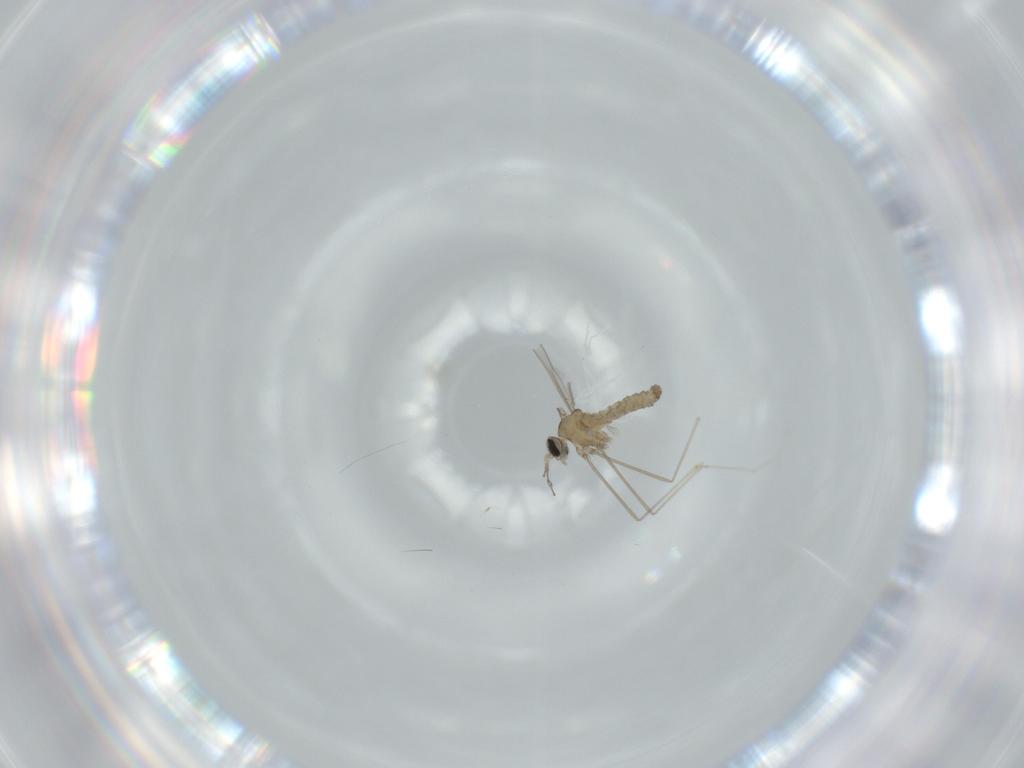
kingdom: Animalia
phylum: Arthropoda
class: Insecta
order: Diptera
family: Cecidomyiidae
